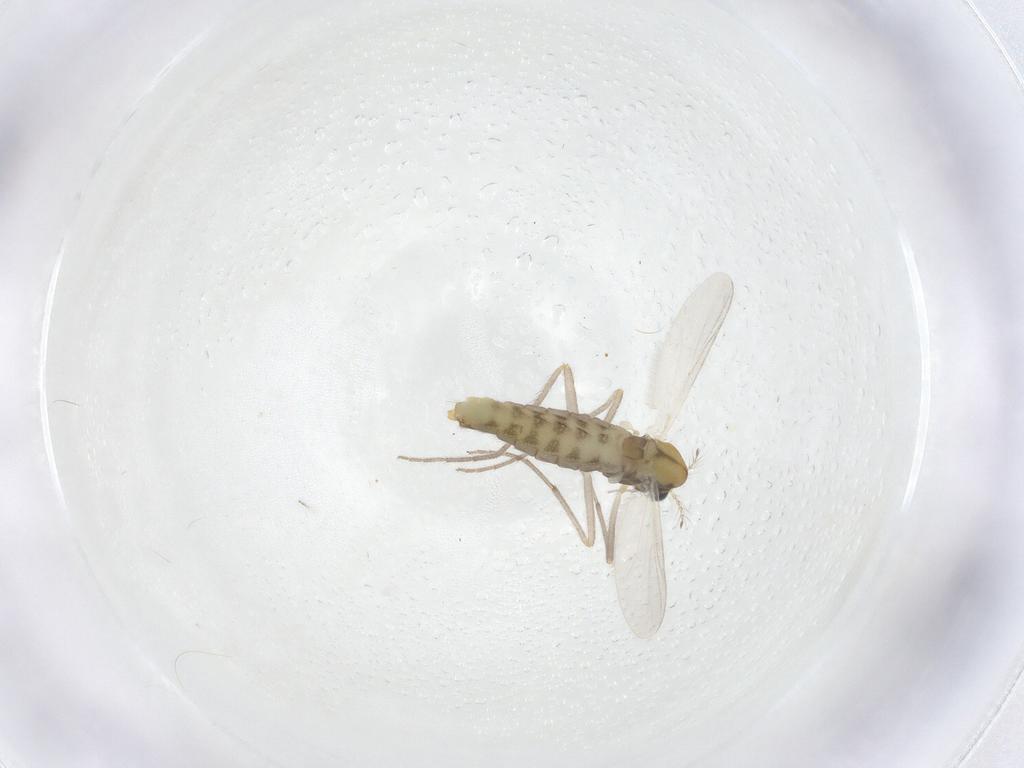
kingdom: Animalia
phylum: Arthropoda
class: Insecta
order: Diptera
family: Chironomidae
